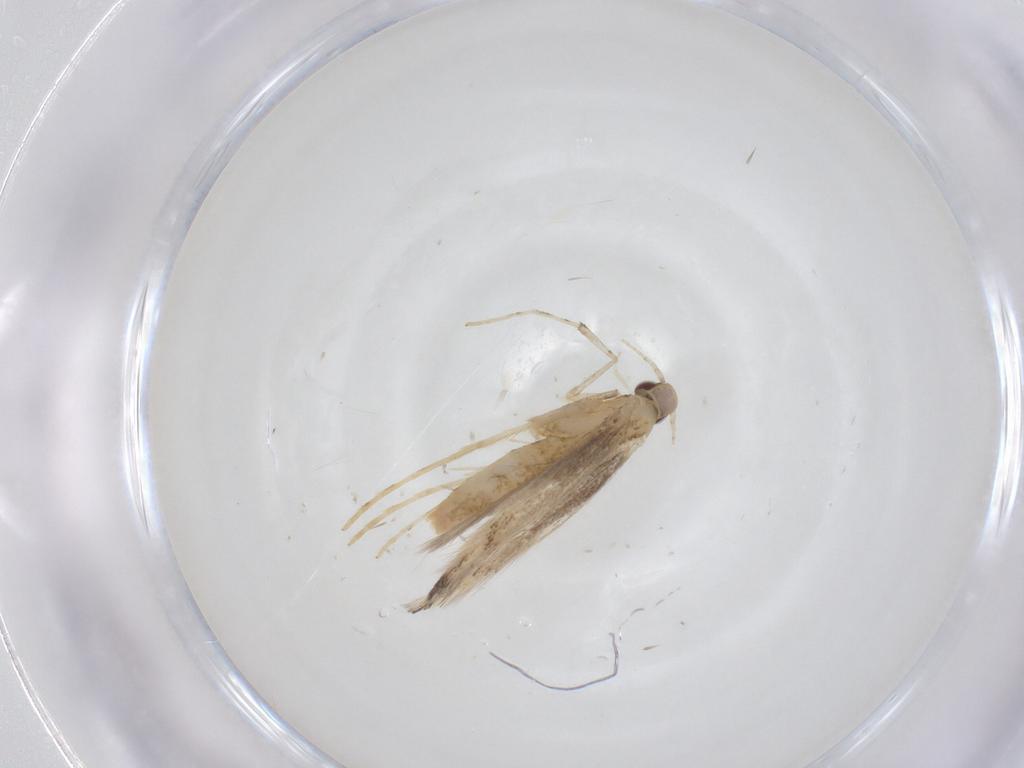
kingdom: Animalia
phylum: Arthropoda
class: Insecta
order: Lepidoptera
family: Gracillariidae
